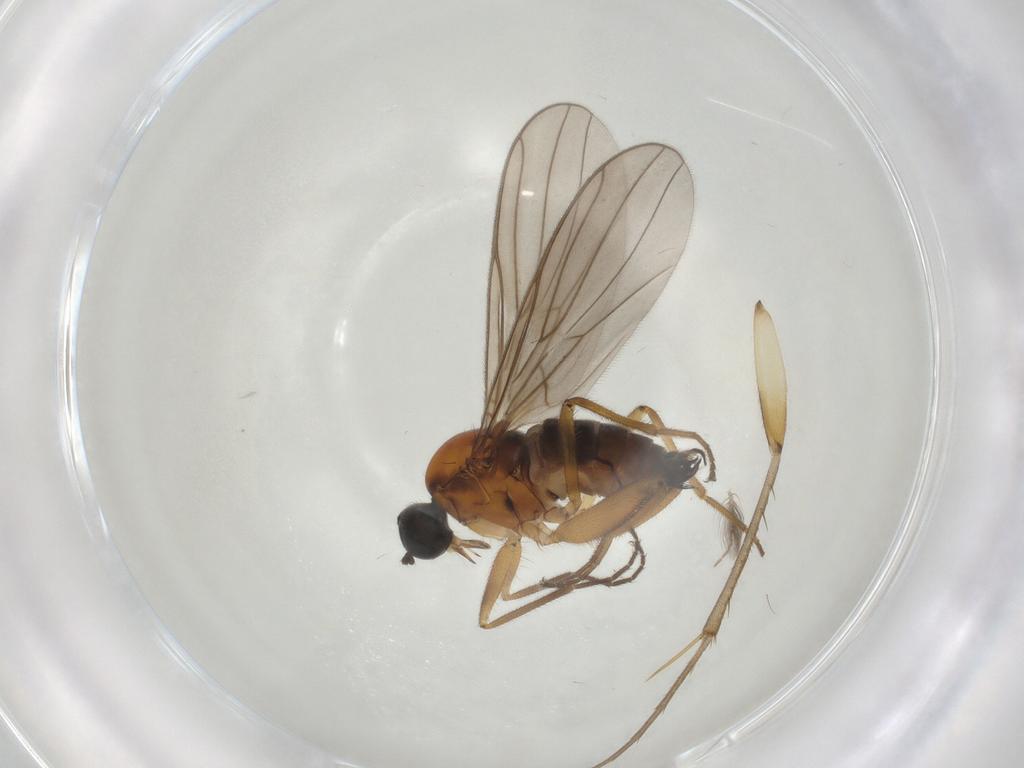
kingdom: Animalia
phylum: Arthropoda
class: Insecta
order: Diptera
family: Hybotidae
